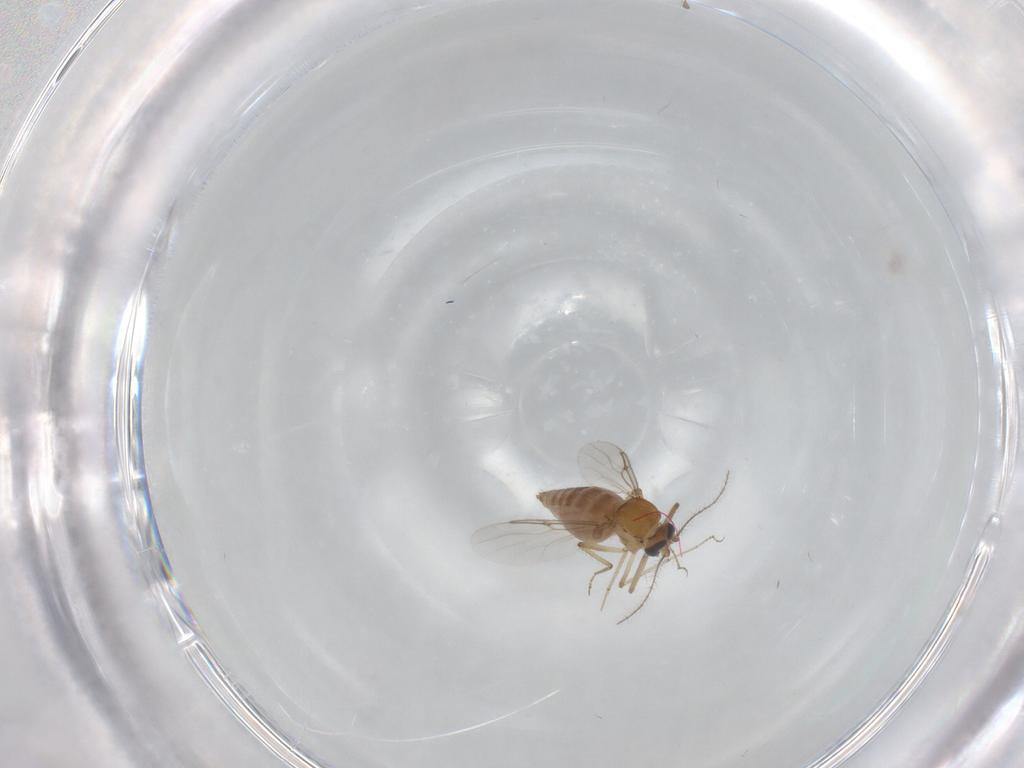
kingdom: Animalia
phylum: Arthropoda
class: Insecta
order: Diptera
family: Ceratopogonidae
